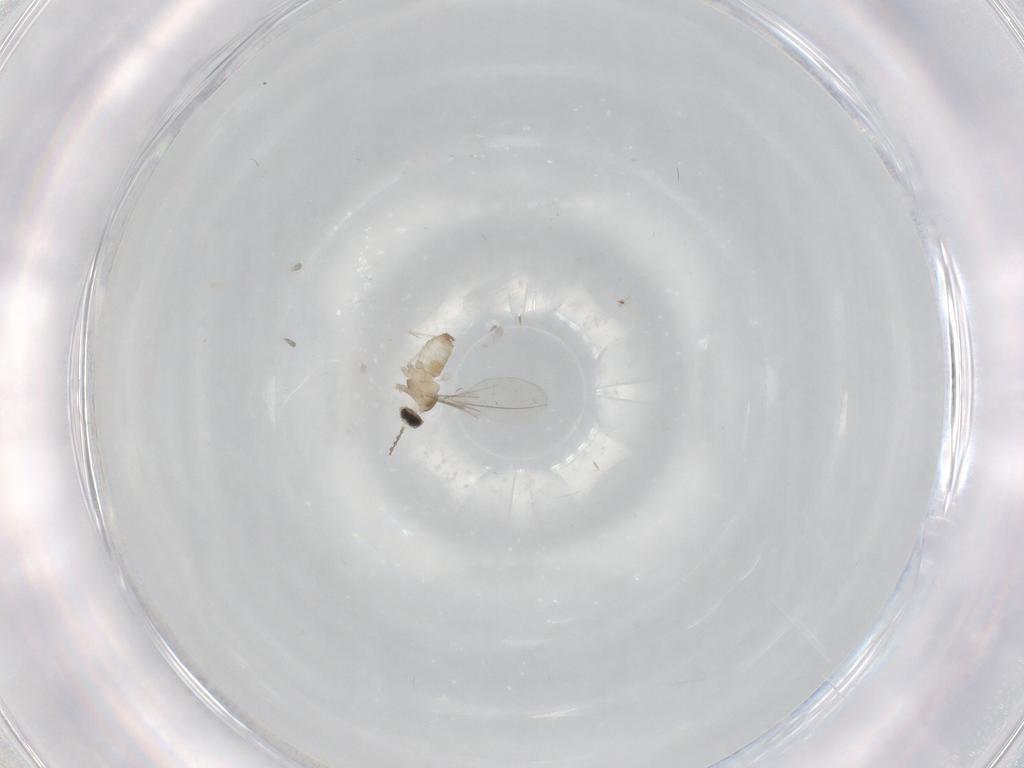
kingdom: Animalia
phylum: Arthropoda
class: Insecta
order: Diptera
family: Cecidomyiidae
